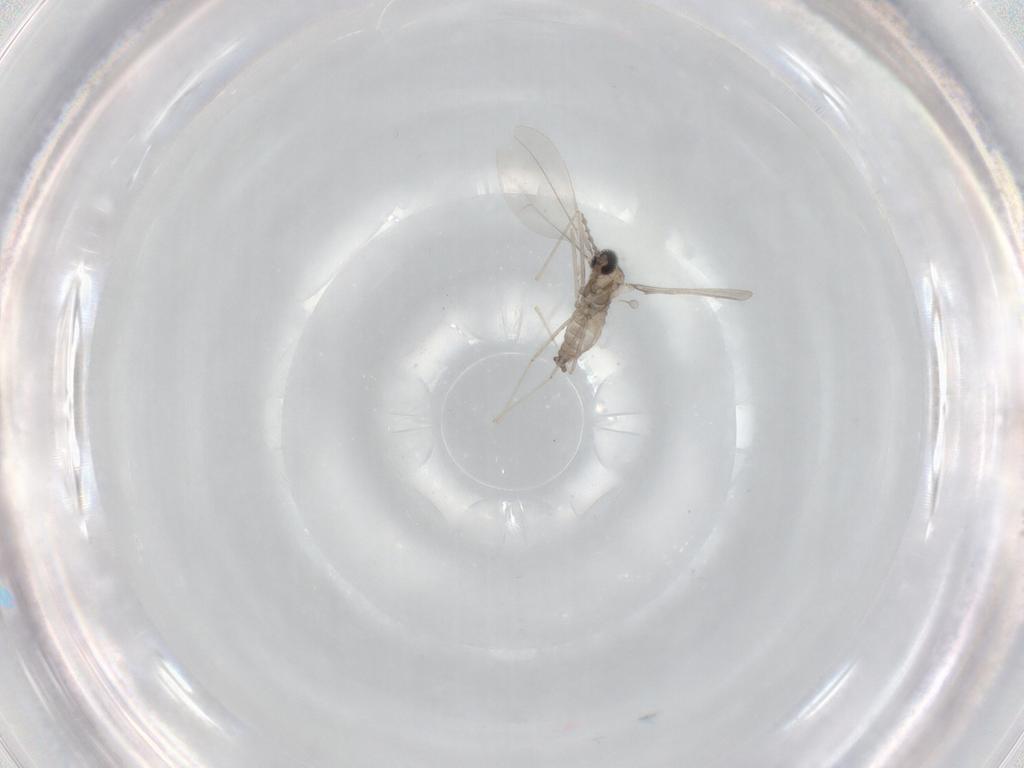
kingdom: Animalia
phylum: Arthropoda
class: Insecta
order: Diptera
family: Cecidomyiidae
